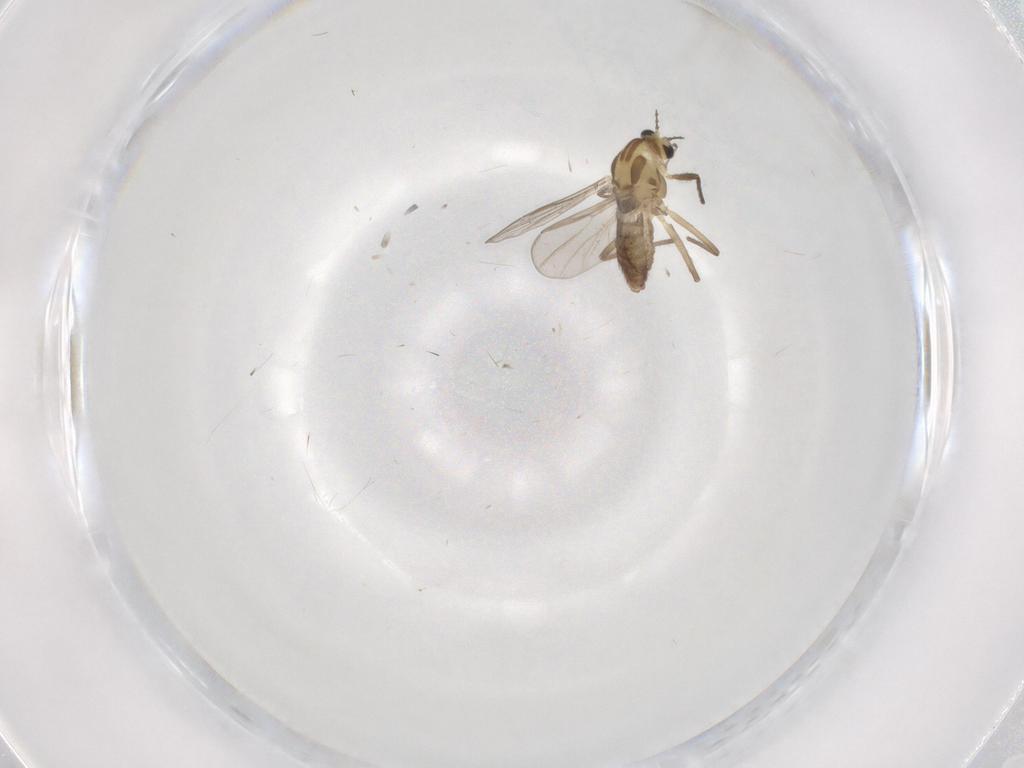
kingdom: Animalia
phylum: Arthropoda
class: Insecta
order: Diptera
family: Chironomidae
